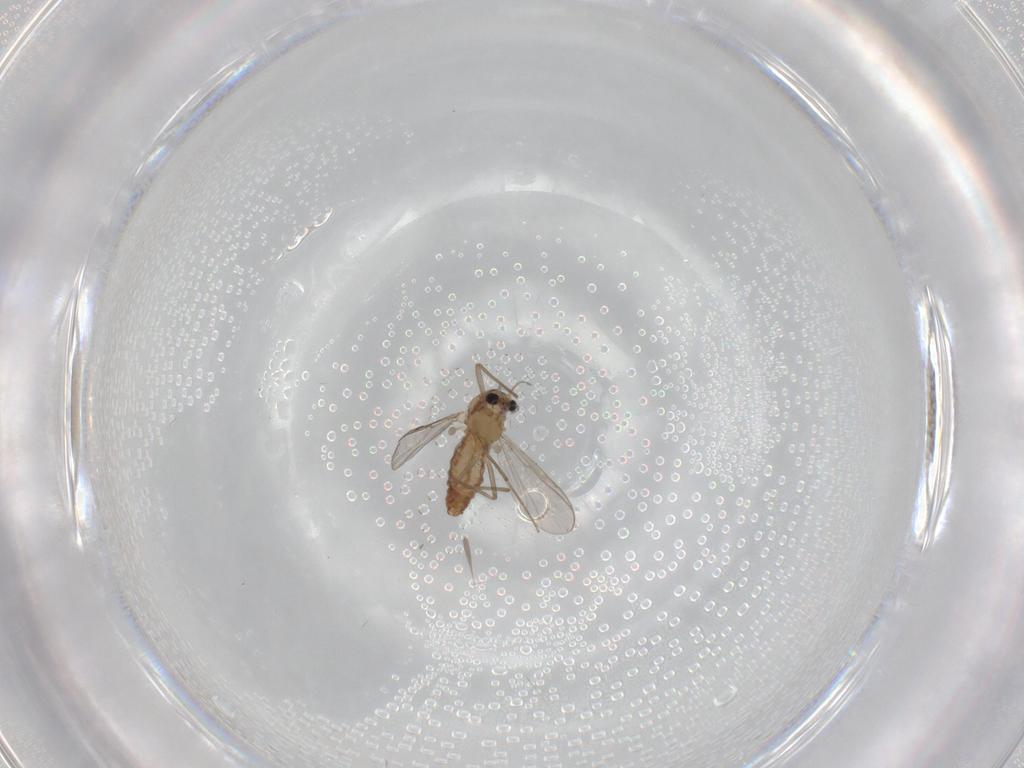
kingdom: Animalia
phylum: Arthropoda
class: Insecta
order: Diptera
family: Chironomidae
